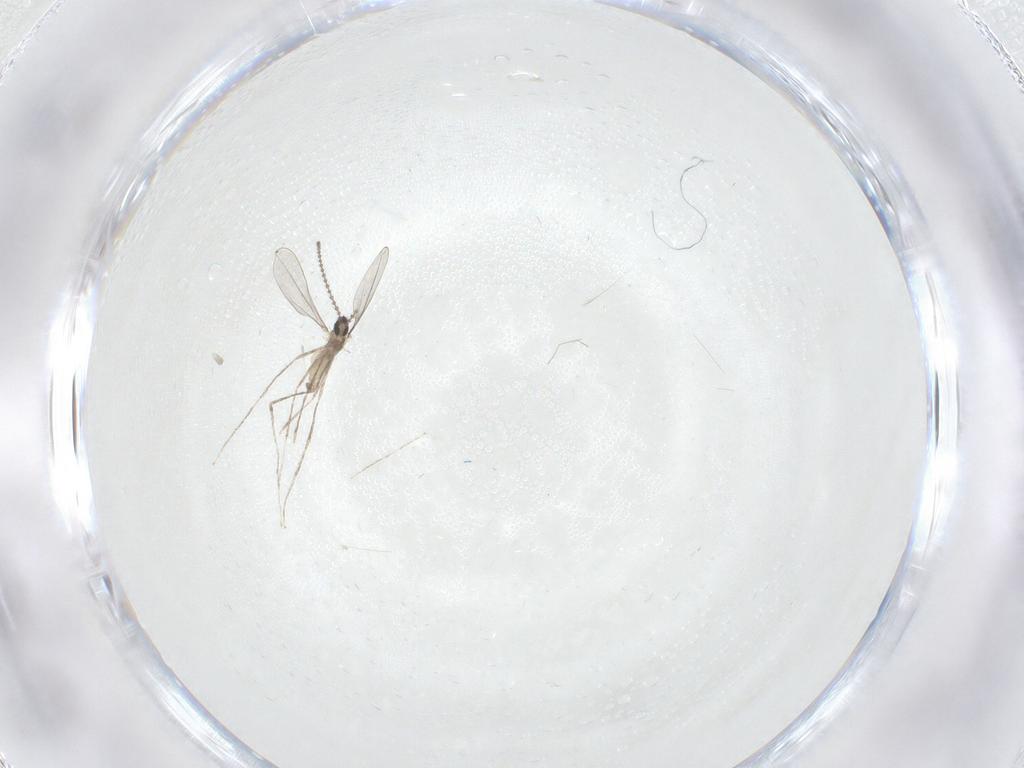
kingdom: Animalia
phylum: Arthropoda
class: Insecta
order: Diptera
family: Cecidomyiidae
